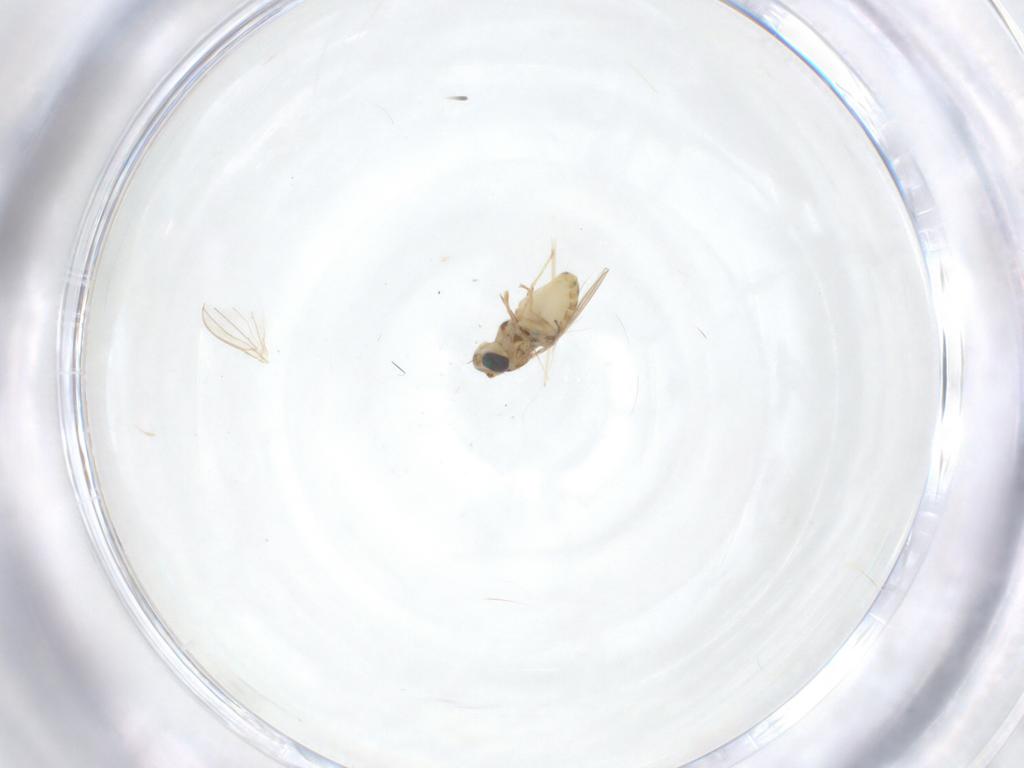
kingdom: Animalia
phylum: Arthropoda
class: Insecta
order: Diptera
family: Chyromyidae
